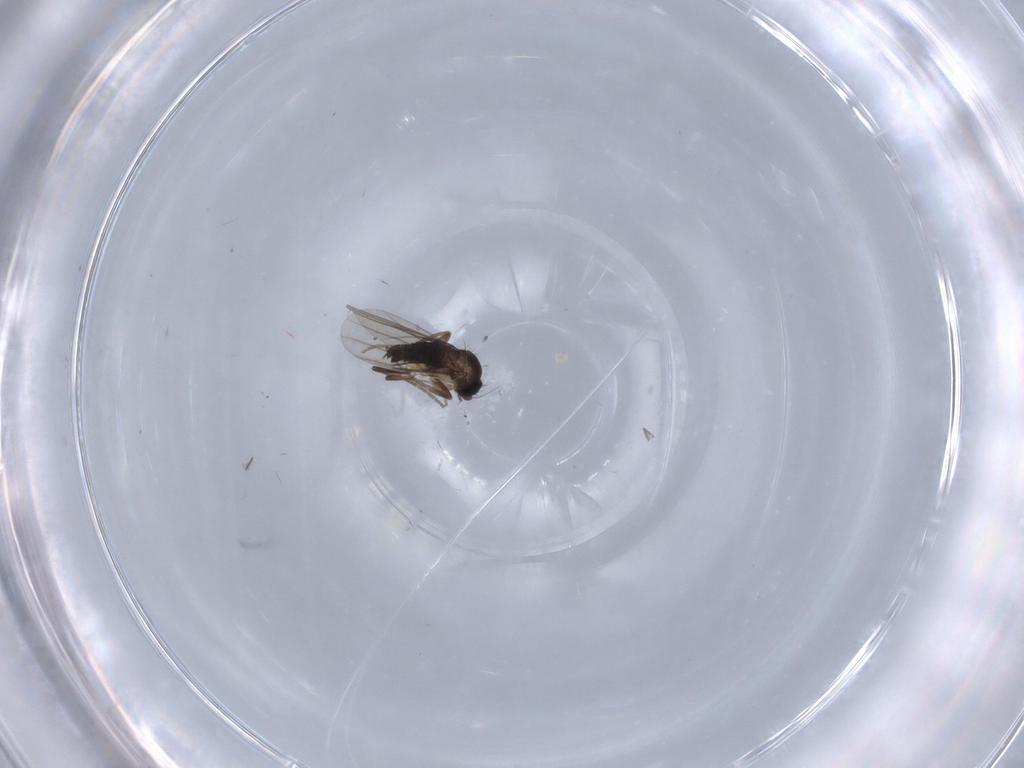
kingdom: Animalia
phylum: Arthropoda
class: Insecta
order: Diptera
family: Phoridae
